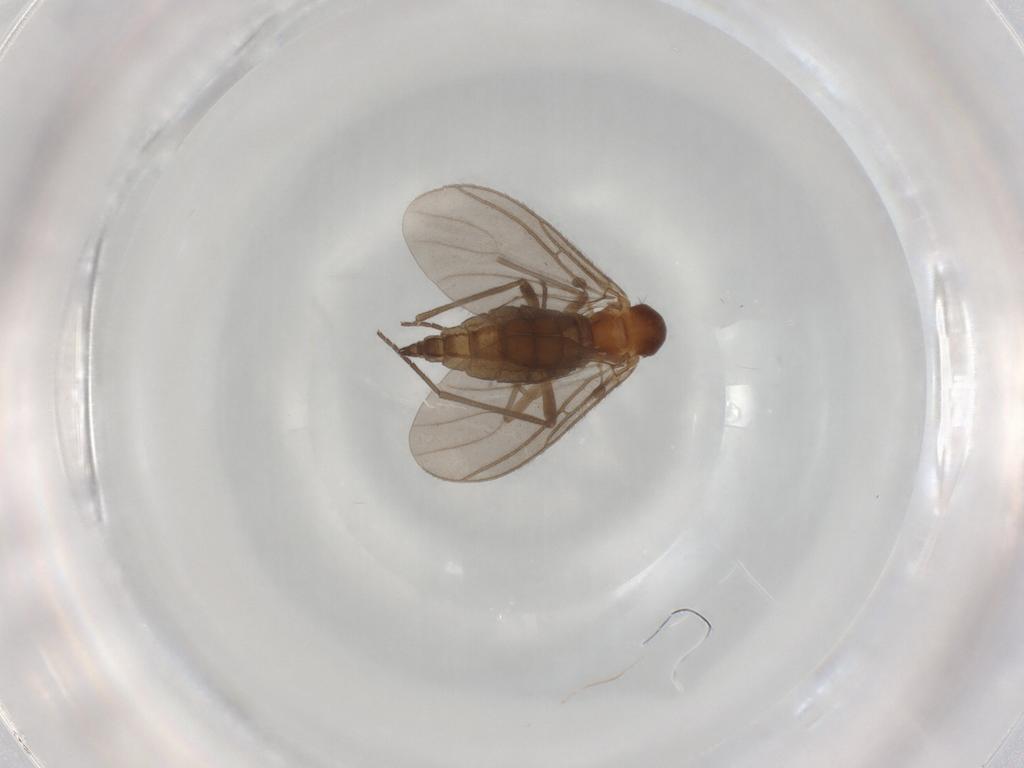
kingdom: Animalia
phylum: Arthropoda
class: Insecta
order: Diptera
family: Sciaridae
